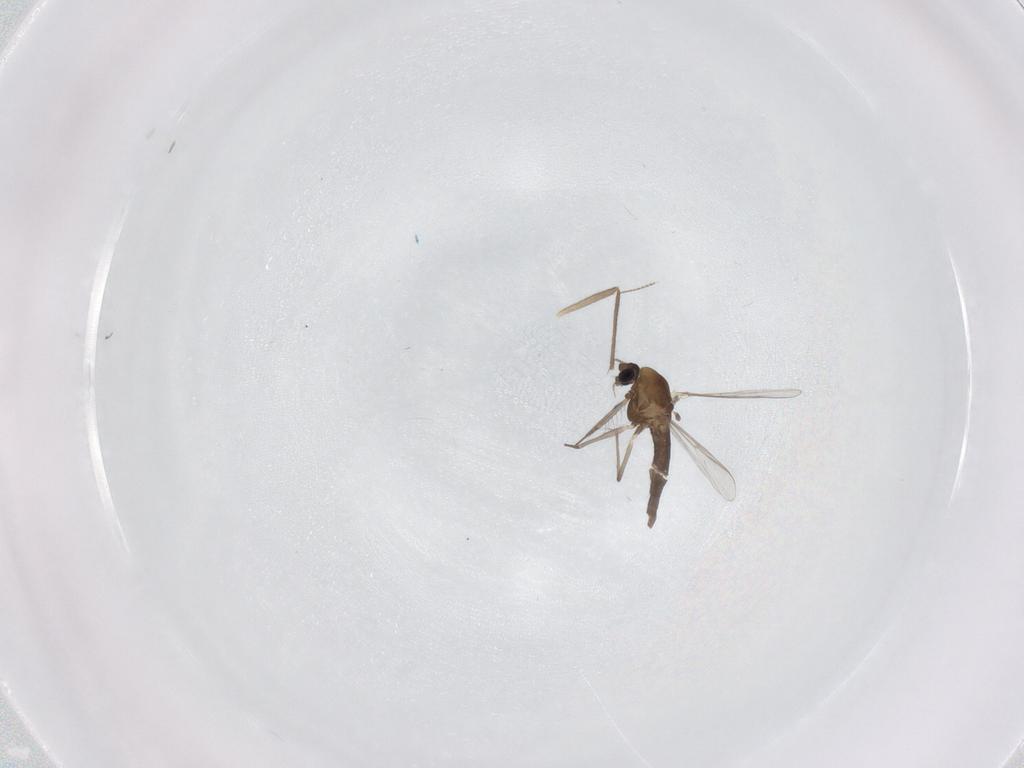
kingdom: Animalia
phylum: Arthropoda
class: Insecta
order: Diptera
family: Chironomidae
